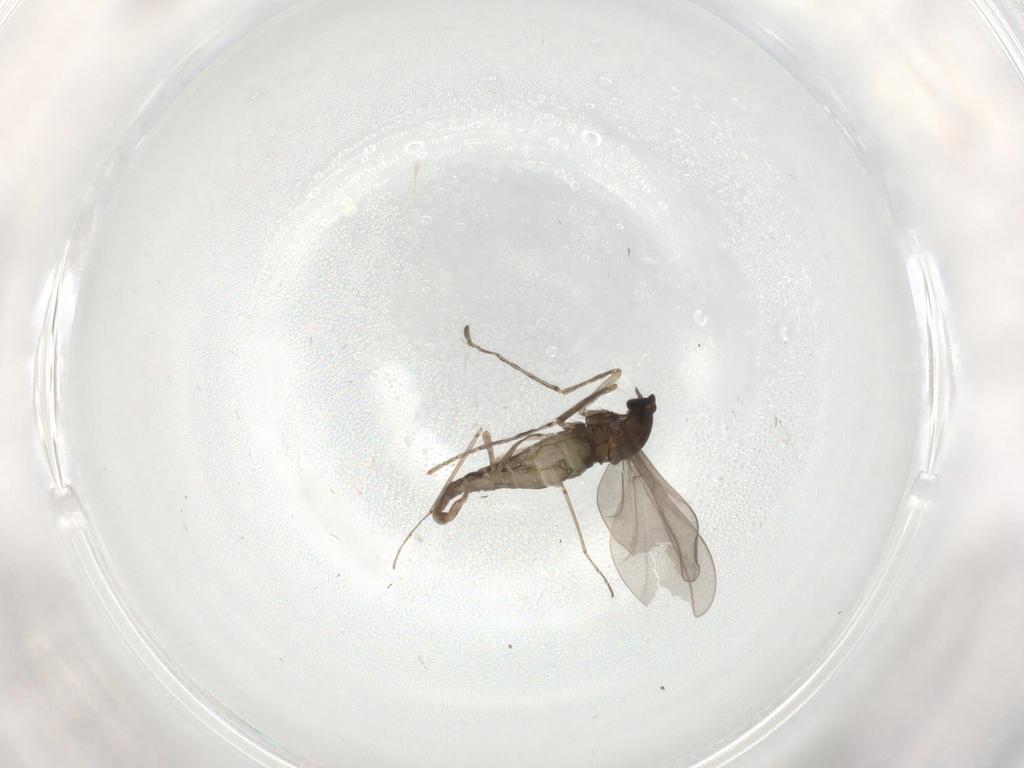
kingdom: Animalia
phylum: Arthropoda
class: Insecta
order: Diptera
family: Cecidomyiidae
